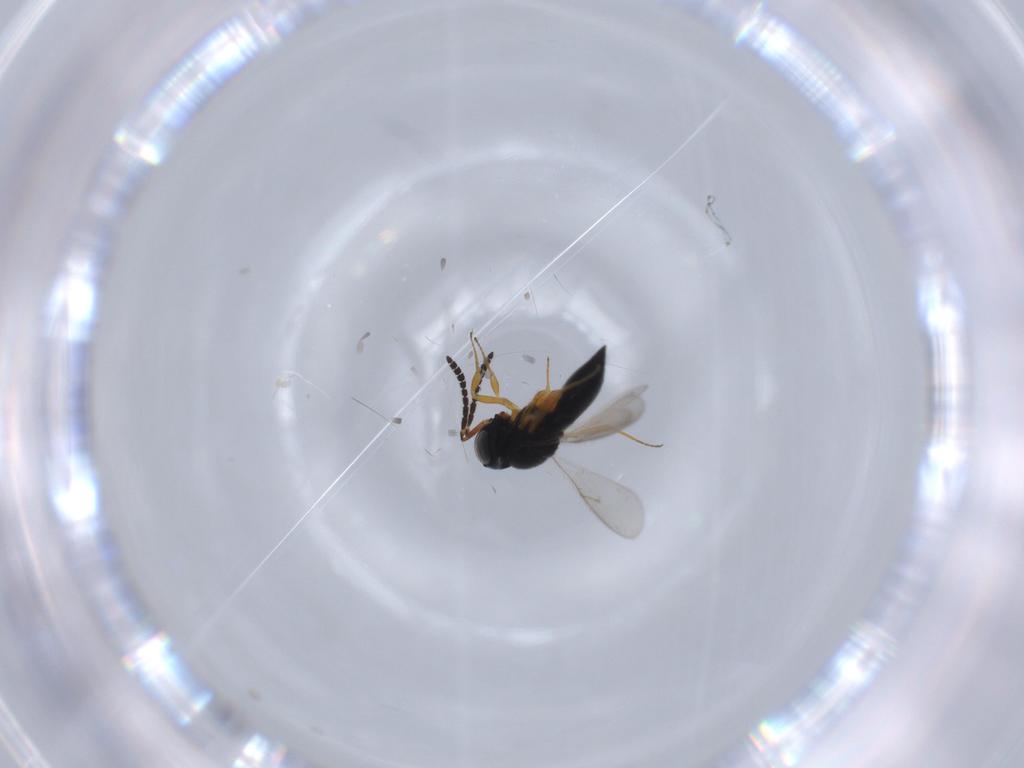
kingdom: Animalia
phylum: Arthropoda
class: Insecta
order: Hymenoptera
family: Scelionidae
